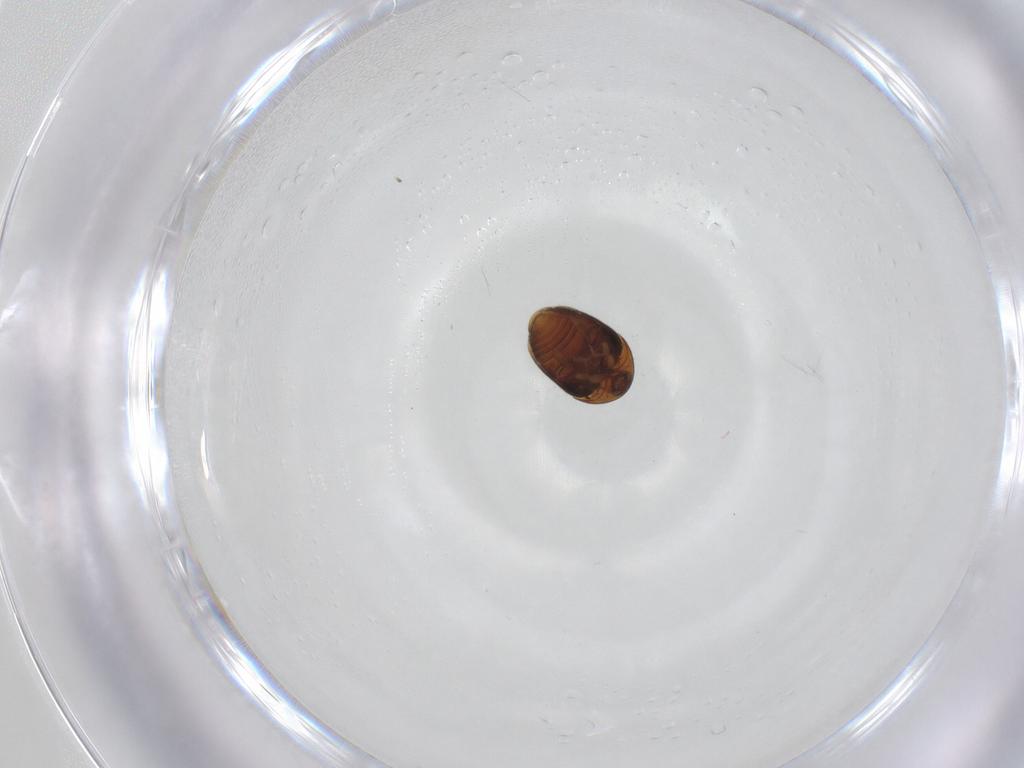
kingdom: Animalia
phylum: Arthropoda
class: Insecta
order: Coleoptera
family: Corylophidae
